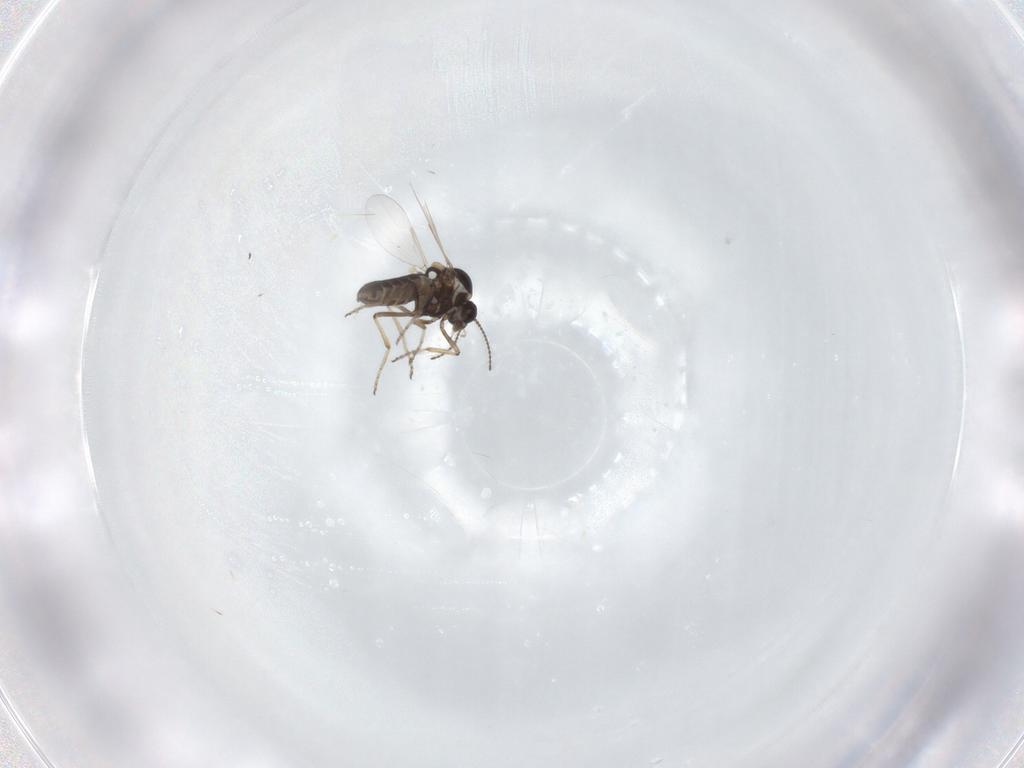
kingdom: Animalia
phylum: Arthropoda
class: Insecta
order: Diptera
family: Ceratopogonidae
